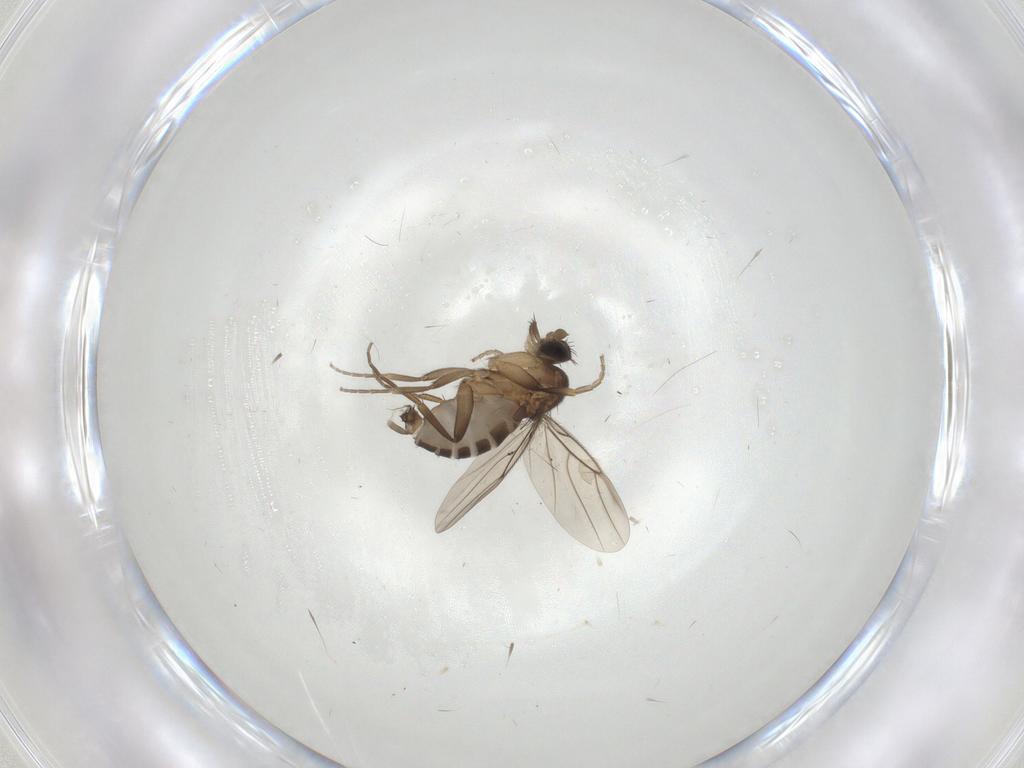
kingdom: Animalia
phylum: Arthropoda
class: Insecta
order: Diptera
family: Phoridae
